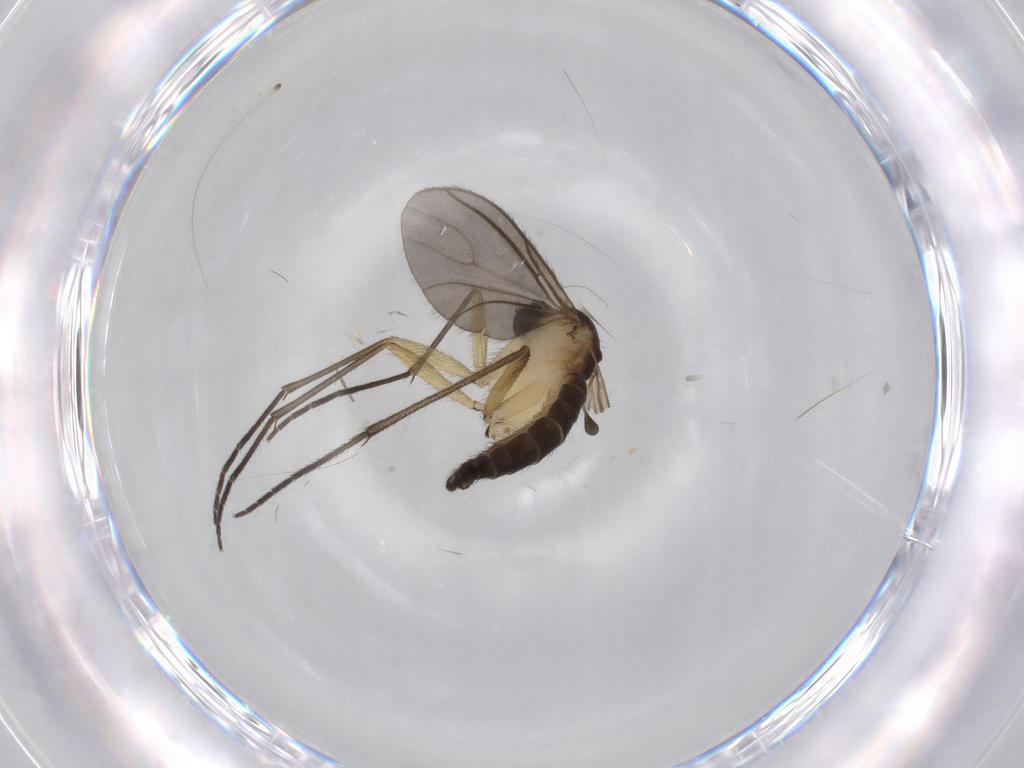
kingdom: Animalia
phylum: Arthropoda
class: Insecta
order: Diptera
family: Sciaridae
